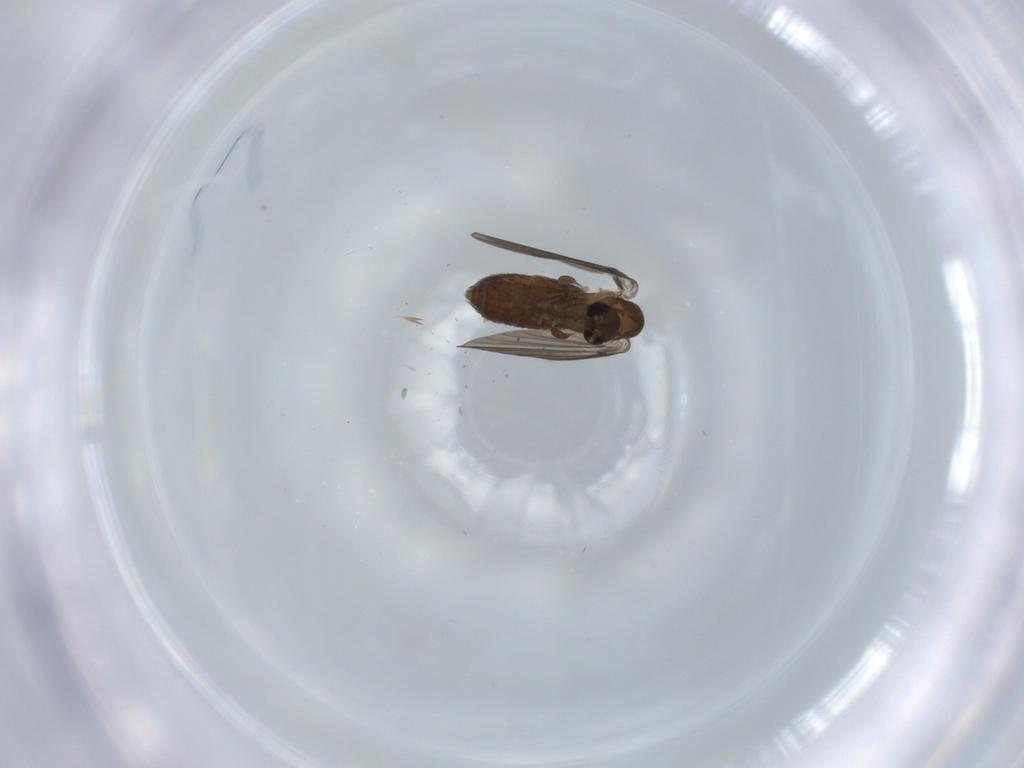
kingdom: Animalia
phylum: Arthropoda
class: Insecta
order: Diptera
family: Psychodidae
